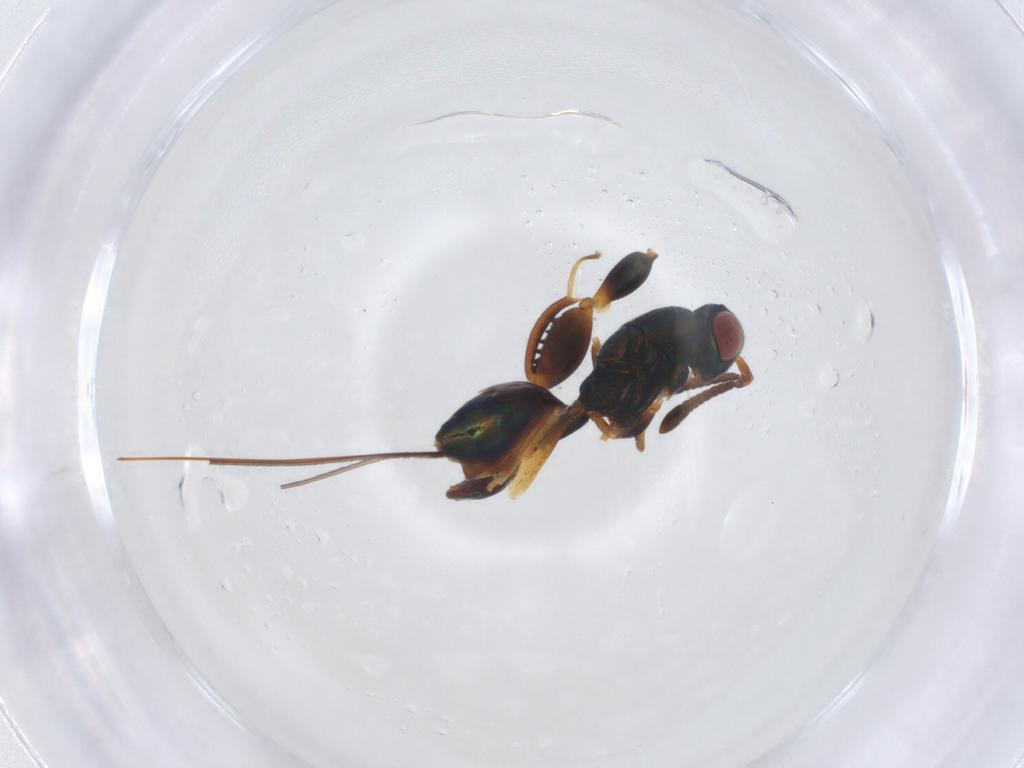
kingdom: Animalia
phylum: Arthropoda
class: Insecta
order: Hymenoptera
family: Torymidae
